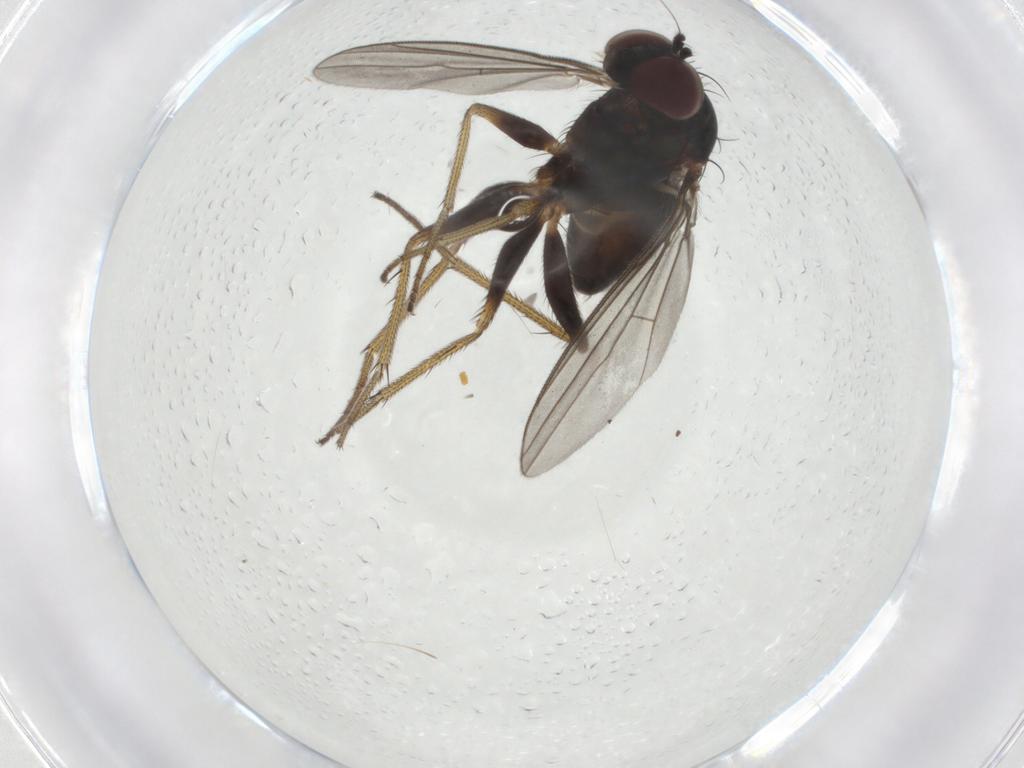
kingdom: Animalia
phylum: Arthropoda
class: Insecta
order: Diptera
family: Dolichopodidae
